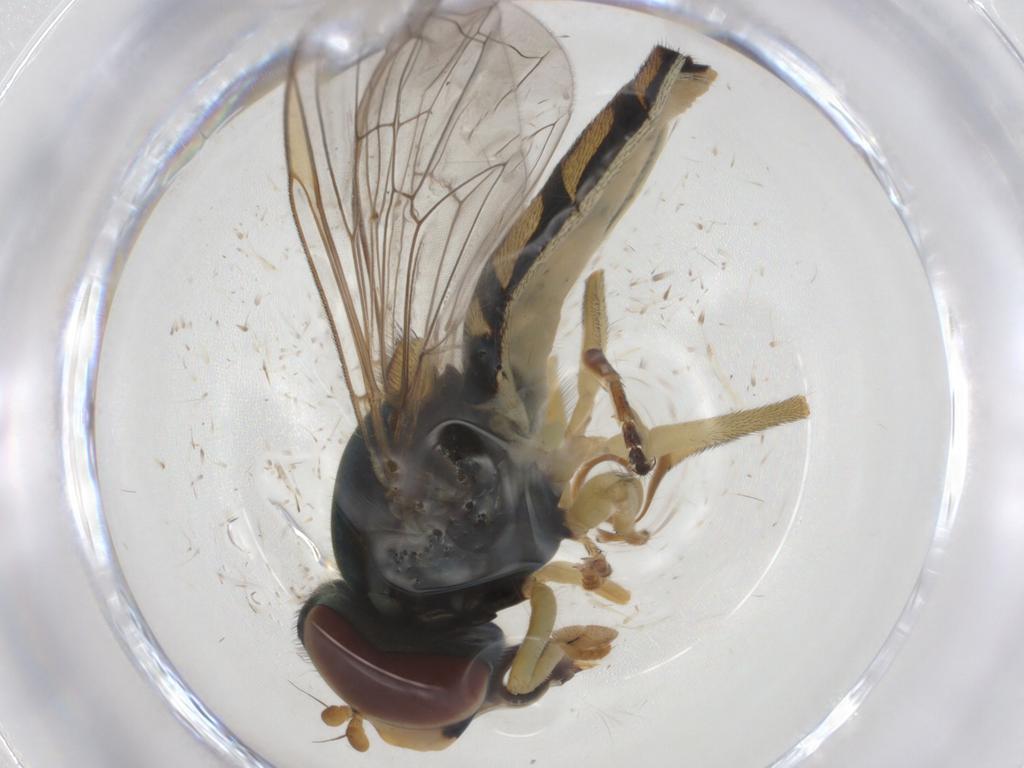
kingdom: Animalia
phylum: Arthropoda
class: Insecta
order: Diptera
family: Syrphidae
